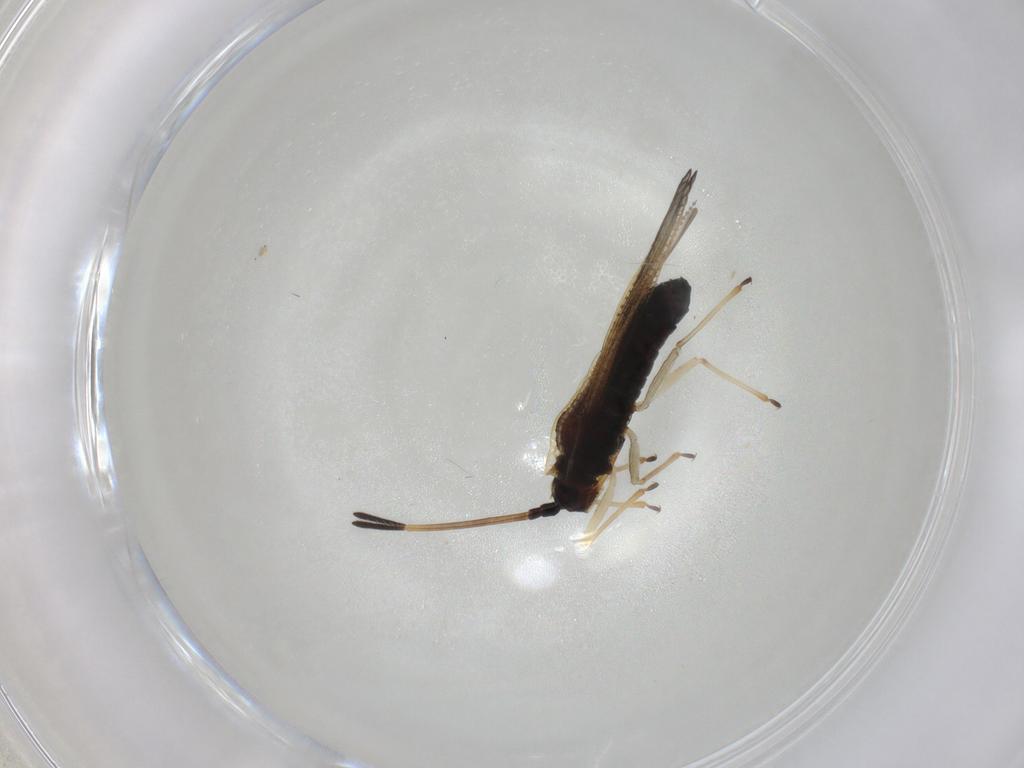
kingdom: Animalia
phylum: Arthropoda
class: Insecta
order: Hemiptera
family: Tingidae
